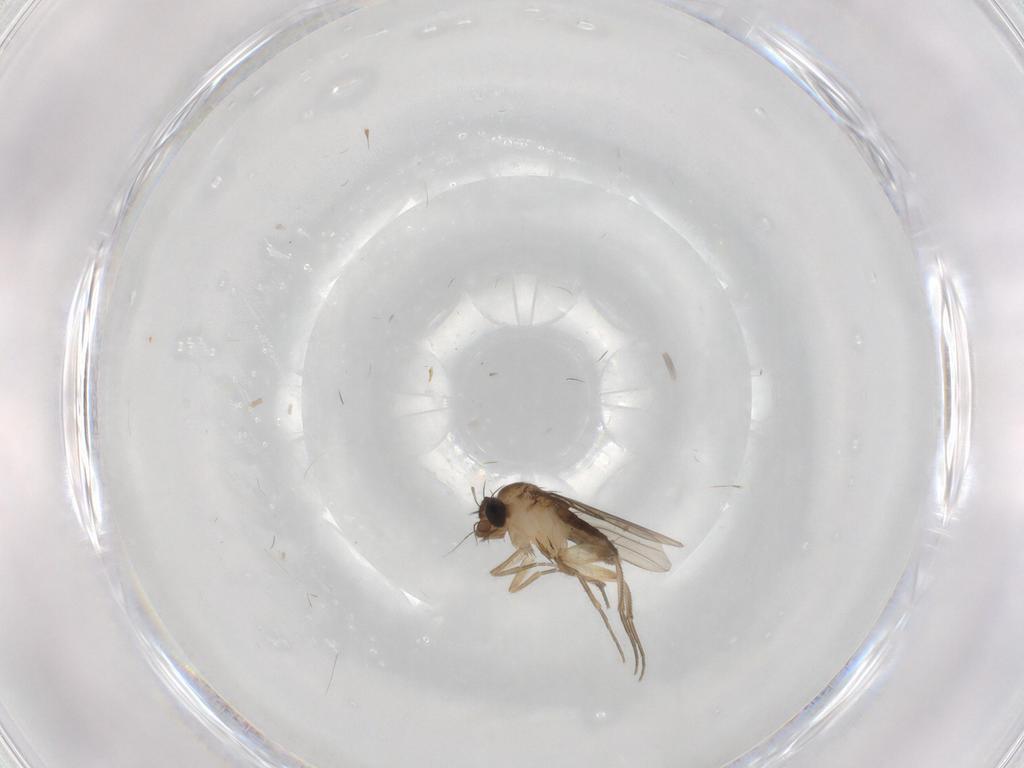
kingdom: Animalia
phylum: Arthropoda
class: Insecta
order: Diptera
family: Phoridae
